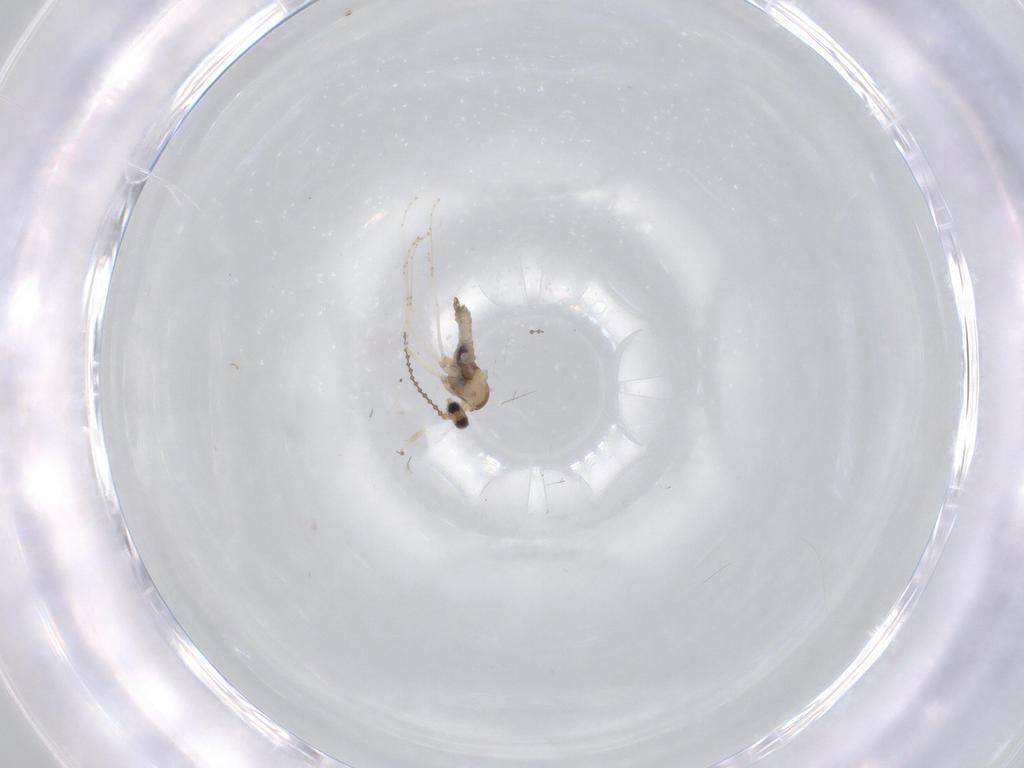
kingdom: Animalia
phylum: Arthropoda
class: Insecta
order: Diptera
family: Cecidomyiidae
